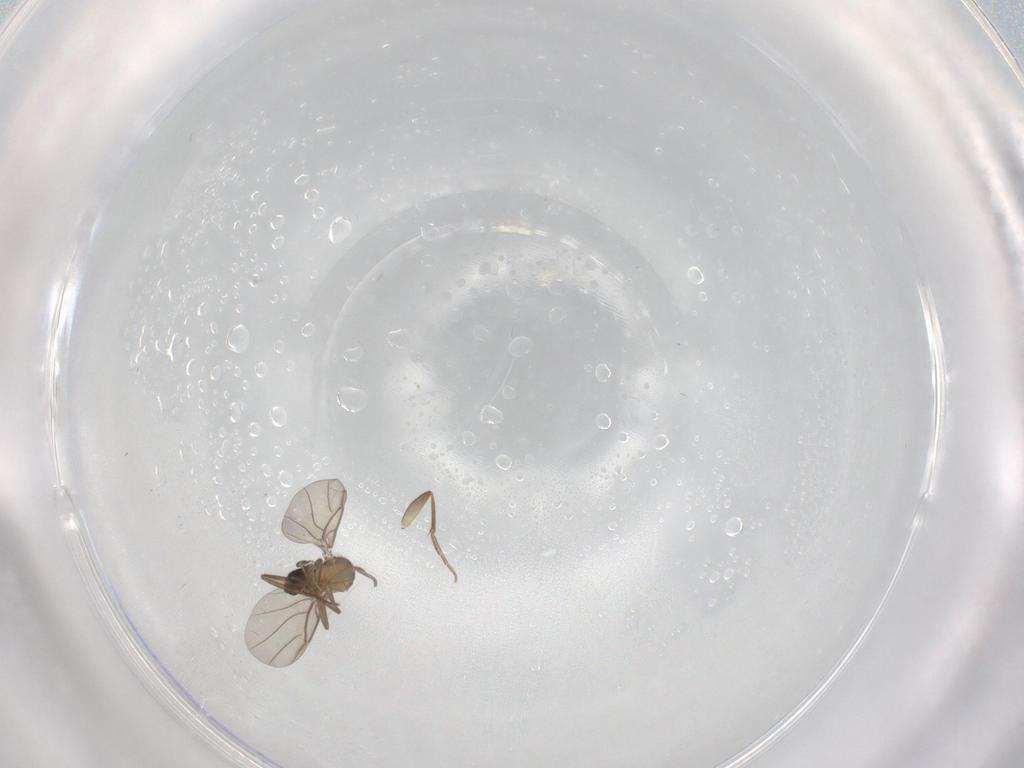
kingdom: Animalia
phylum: Arthropoda
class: Insecta
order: Diptera
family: Phoridae
